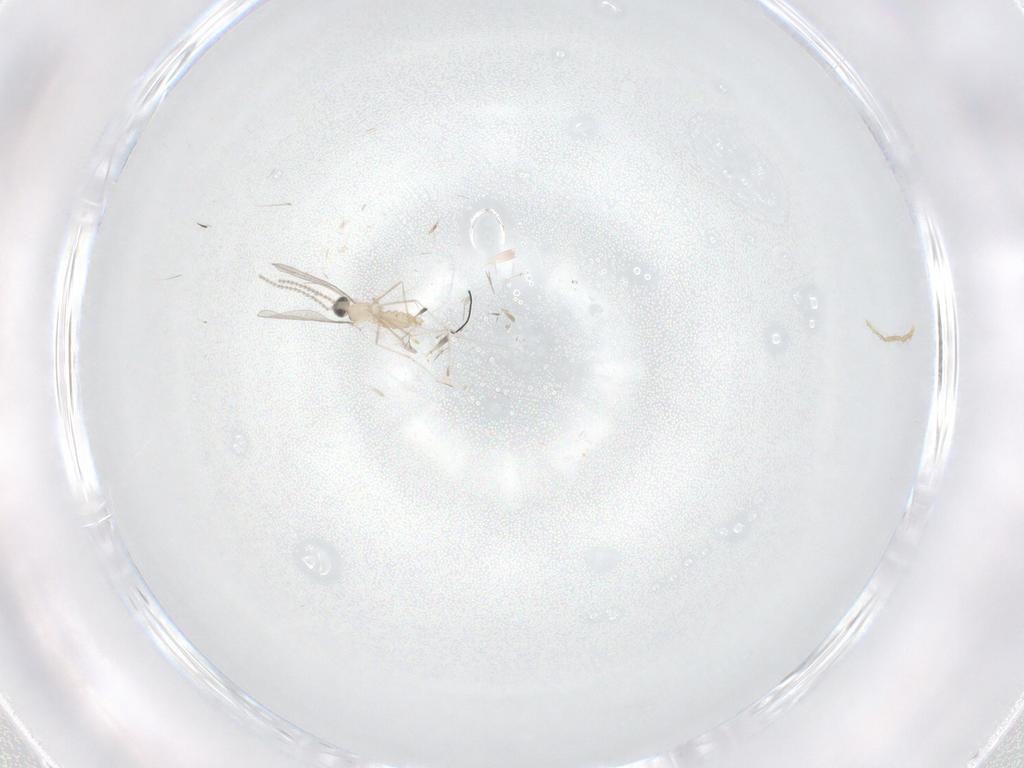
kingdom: Animalia
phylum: Arthropoda
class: Insecta
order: Diptera
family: Cecidomyiidae
